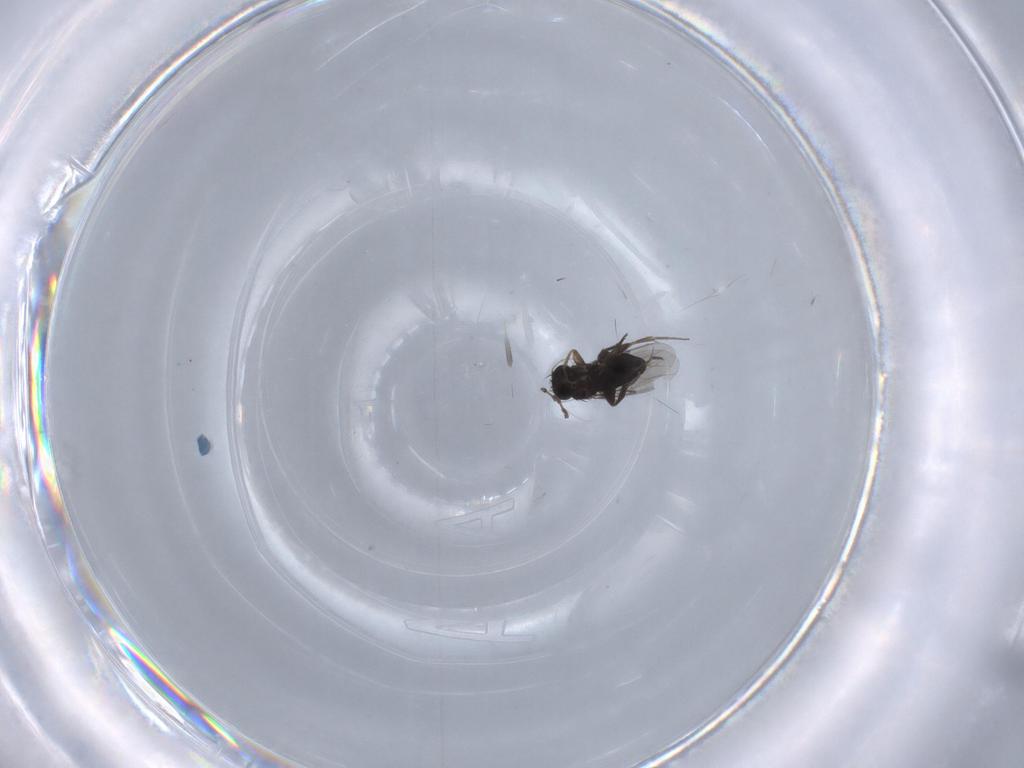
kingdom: Animalia
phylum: Arthropoda
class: Insecta
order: Diptera
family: Phoridae
